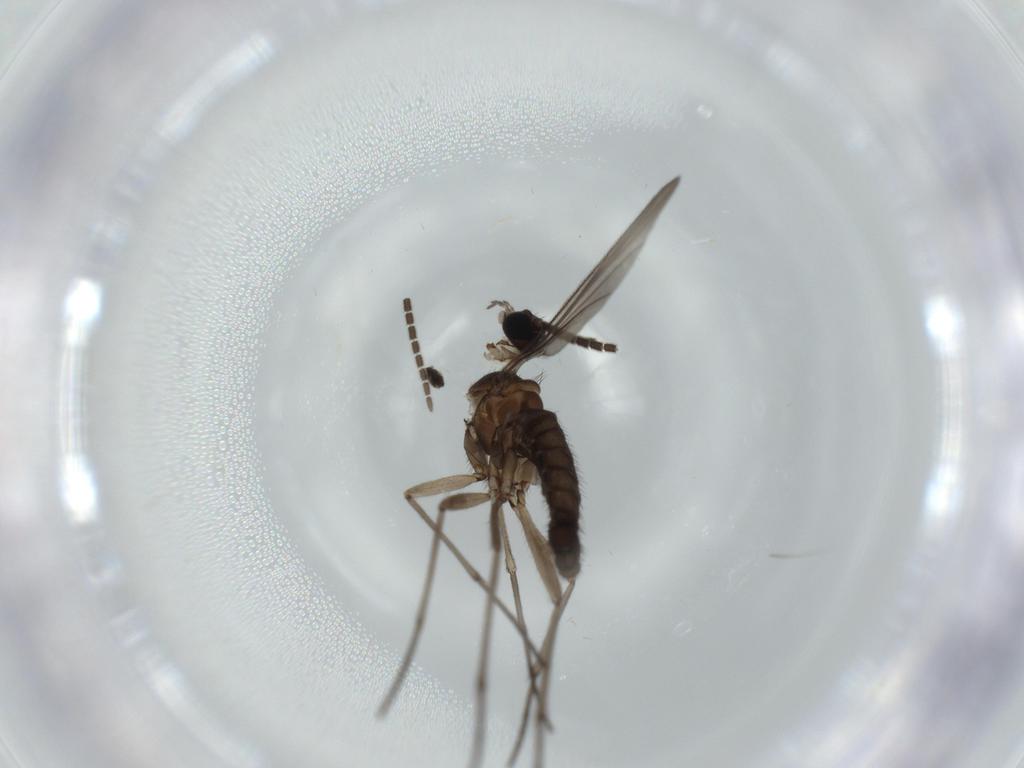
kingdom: Animalia
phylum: Arthropoda
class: Insecta
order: Diptera
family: Sciaridae
